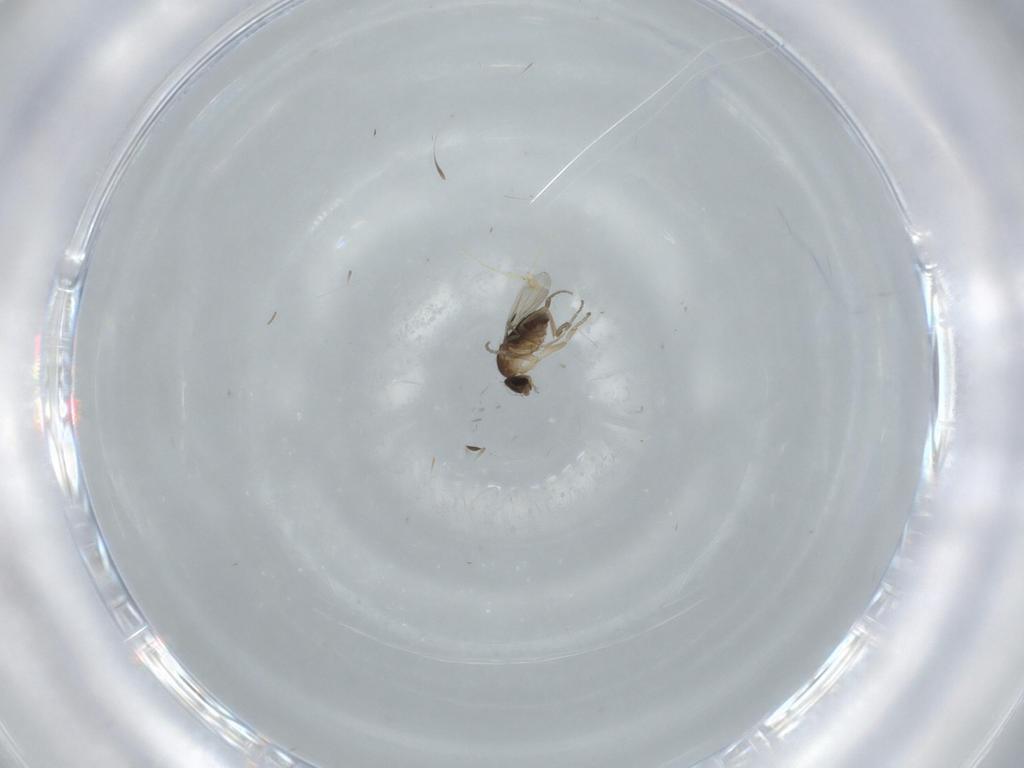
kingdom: Animalia
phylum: Arthropoda
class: Insecta
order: Diptera
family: Phoridae
